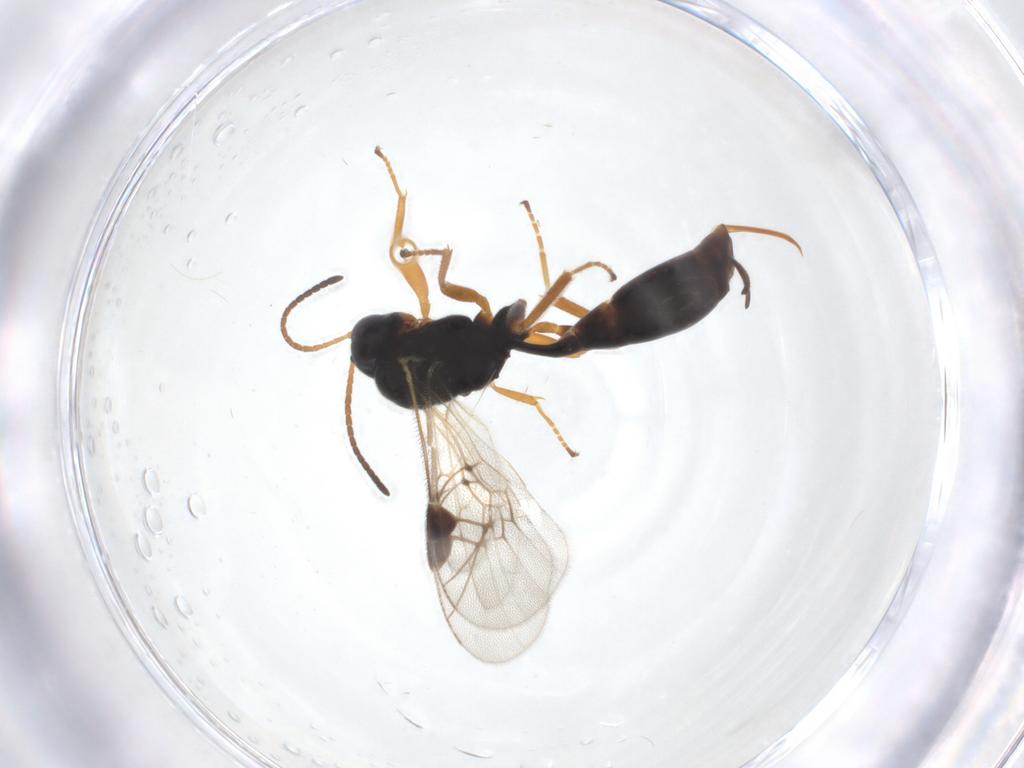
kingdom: Animalia
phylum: Arthropoda
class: Insecta
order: Hymenoptera
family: Ichneumonidae
